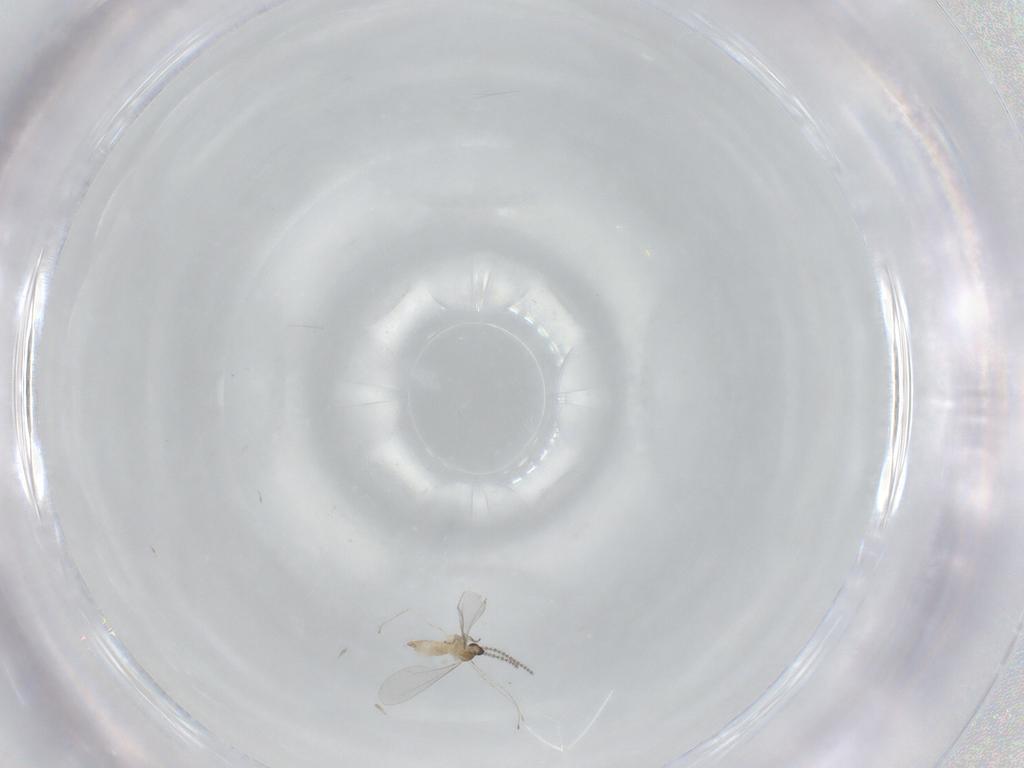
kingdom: Animalia
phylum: Arthropoda
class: Insecta
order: Diptera
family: Cecidomyiidae
